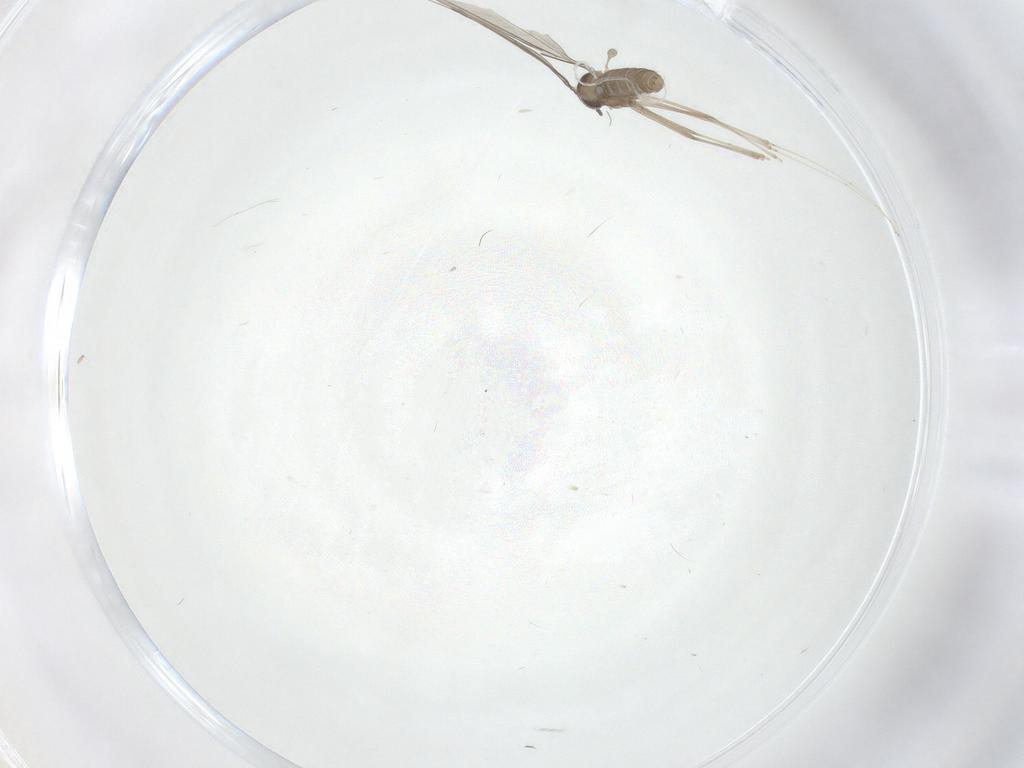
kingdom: Animalia
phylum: Arthropoda
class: Insecta
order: Diptera
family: Cecidomyiidae
